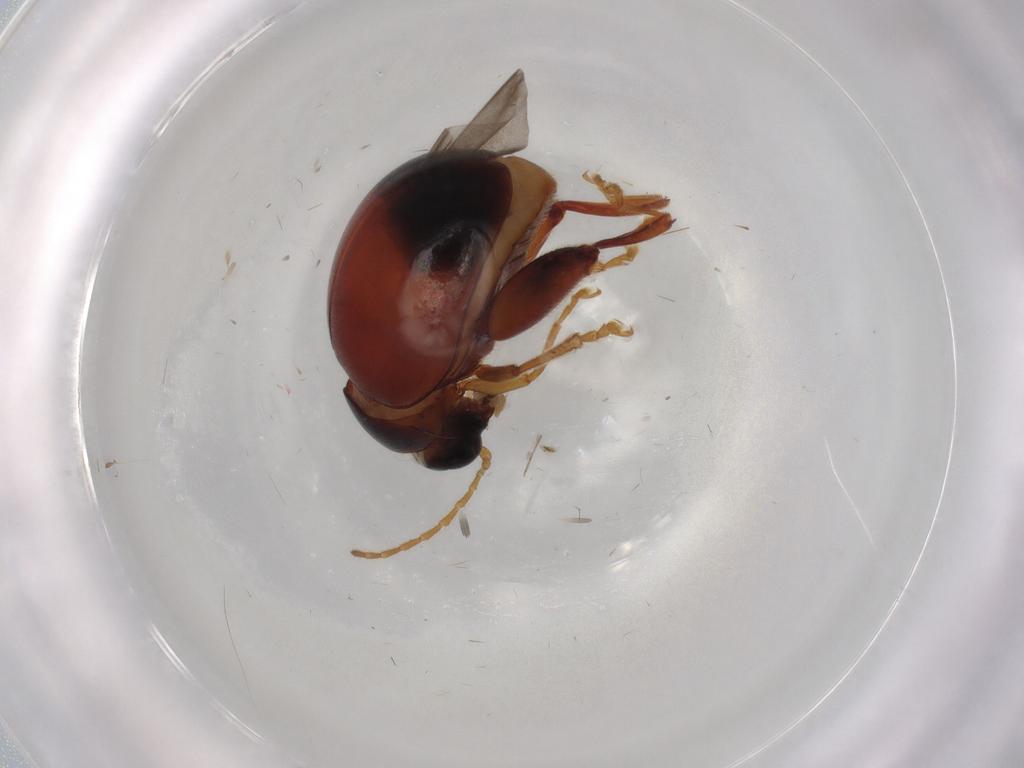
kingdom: Animalia
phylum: Arthropoda
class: Insecta
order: Coleoptera
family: Chrysomelidae
